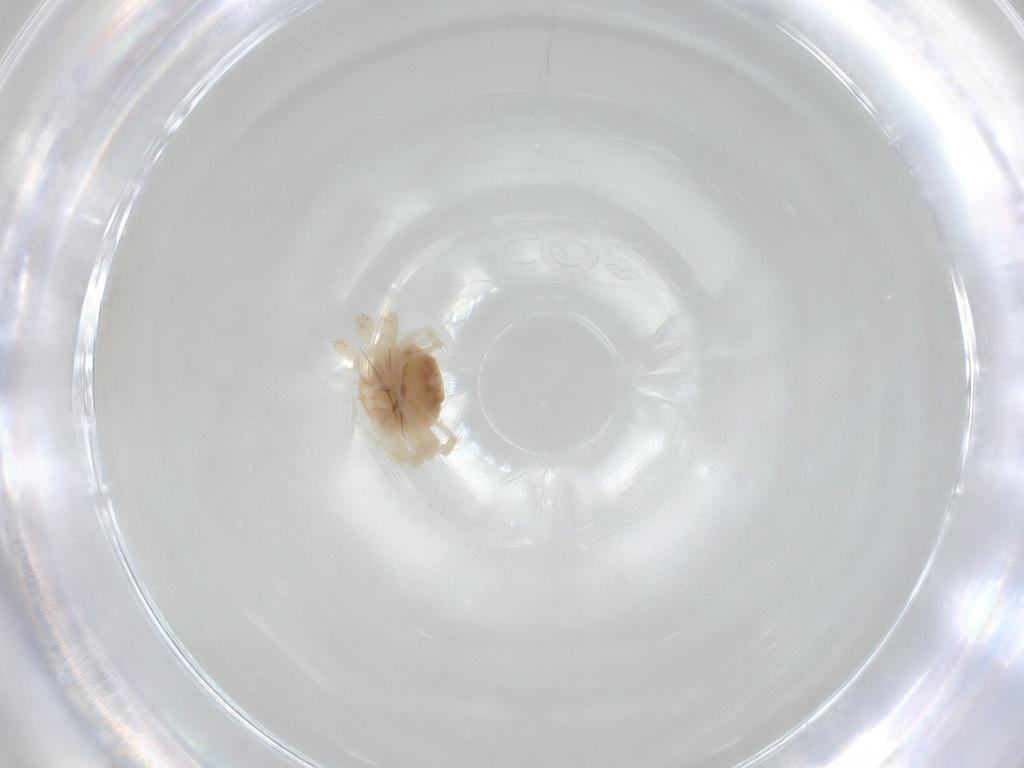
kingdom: Animalia
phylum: Arthropoda
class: Arachnida
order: Trombidiformes
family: Anystidae
